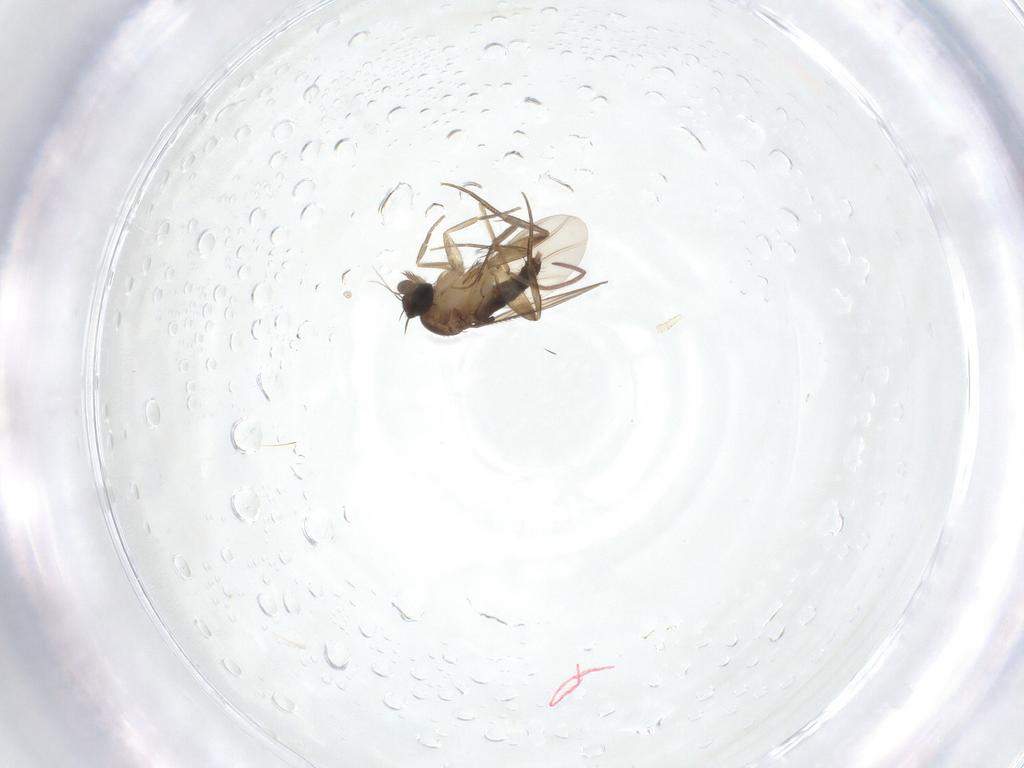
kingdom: Animalia
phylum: Arthropoda
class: Insecta
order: Diptera
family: Phoridae
